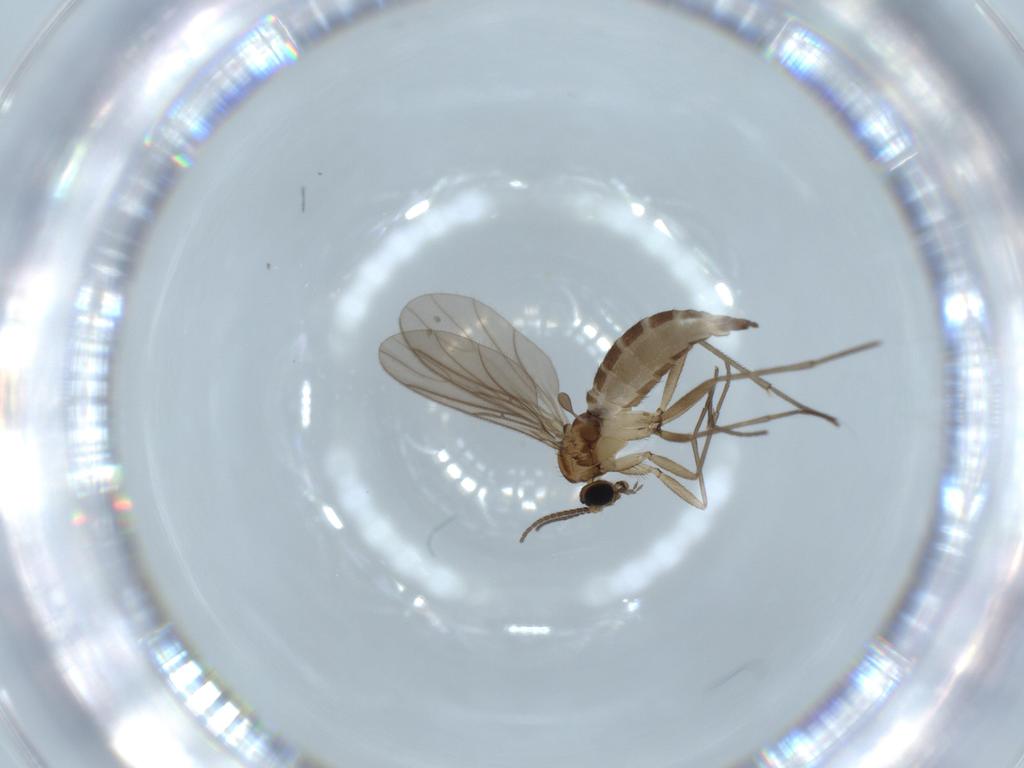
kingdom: Animalia
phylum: Arthropoda
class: Insecta
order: Diptera
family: Sciaridae
